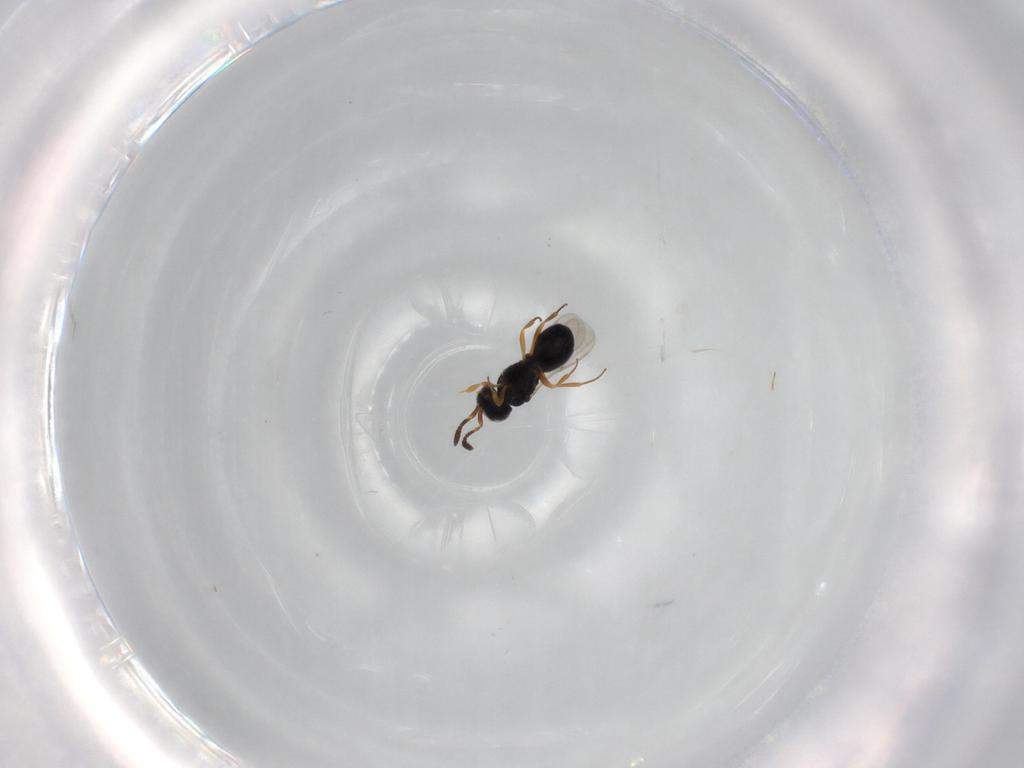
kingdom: Animalia
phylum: Arthropoda
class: Insecta
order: Hymenoptera
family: Scelionidae
